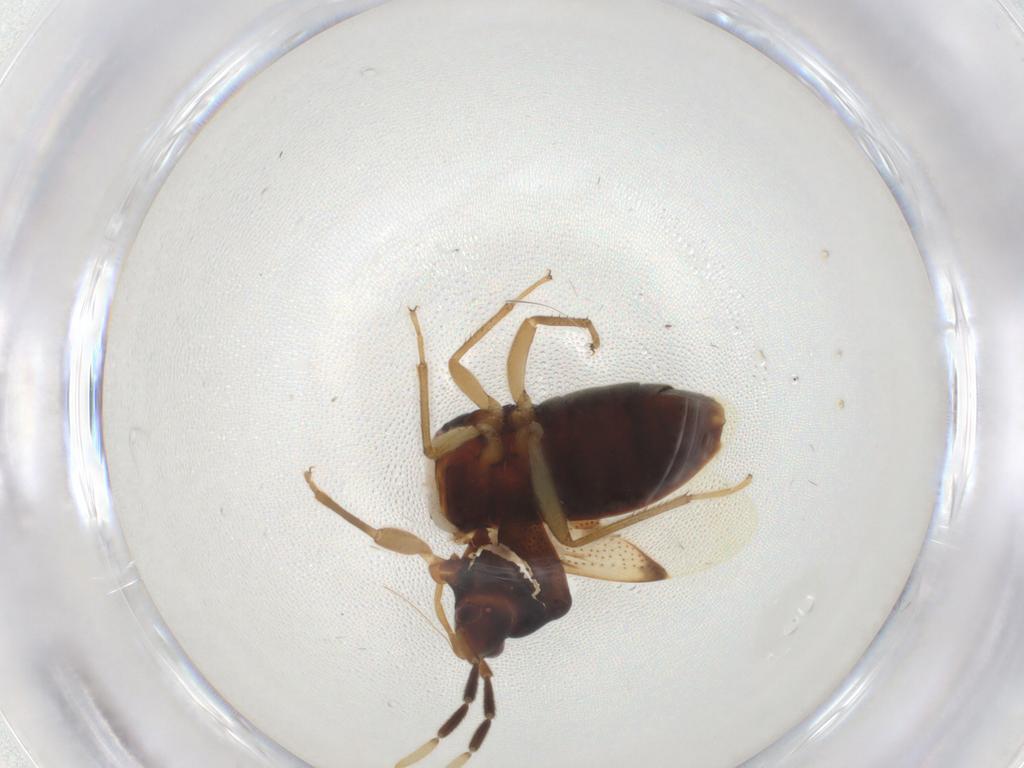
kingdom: Animalia
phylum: Arthropoda
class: Insecta
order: Hemiptera
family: Rhyparochromidae
